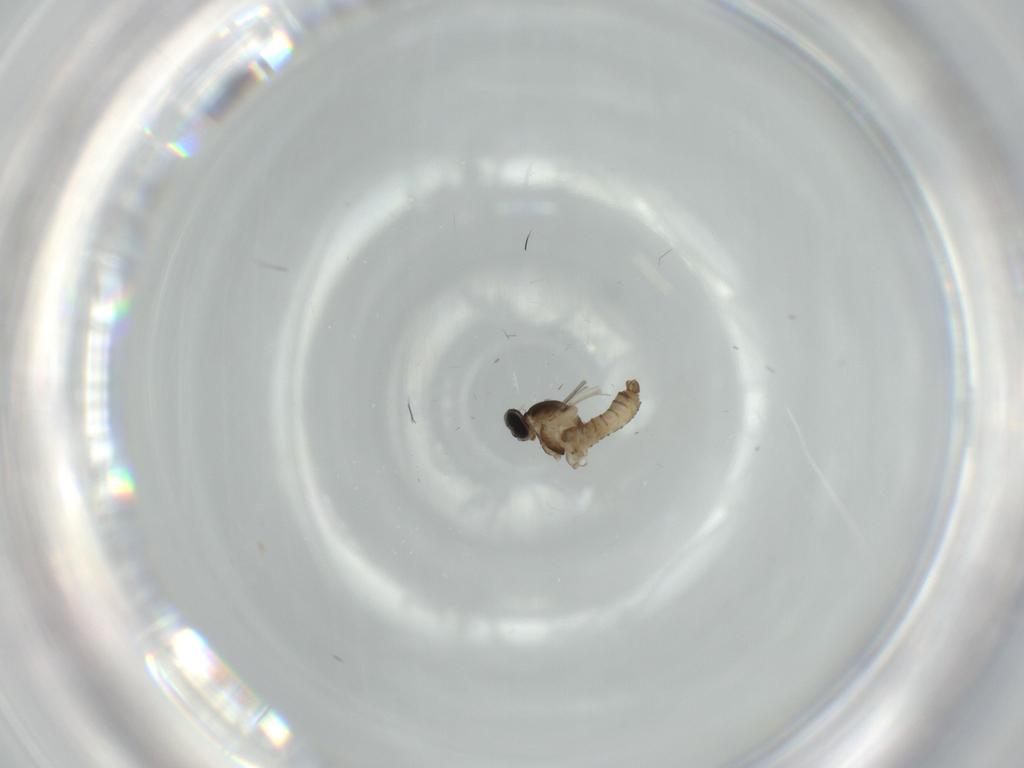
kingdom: Animalia
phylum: Arthropoda
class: Insecta
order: Diptera
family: Cecidomyiidae
